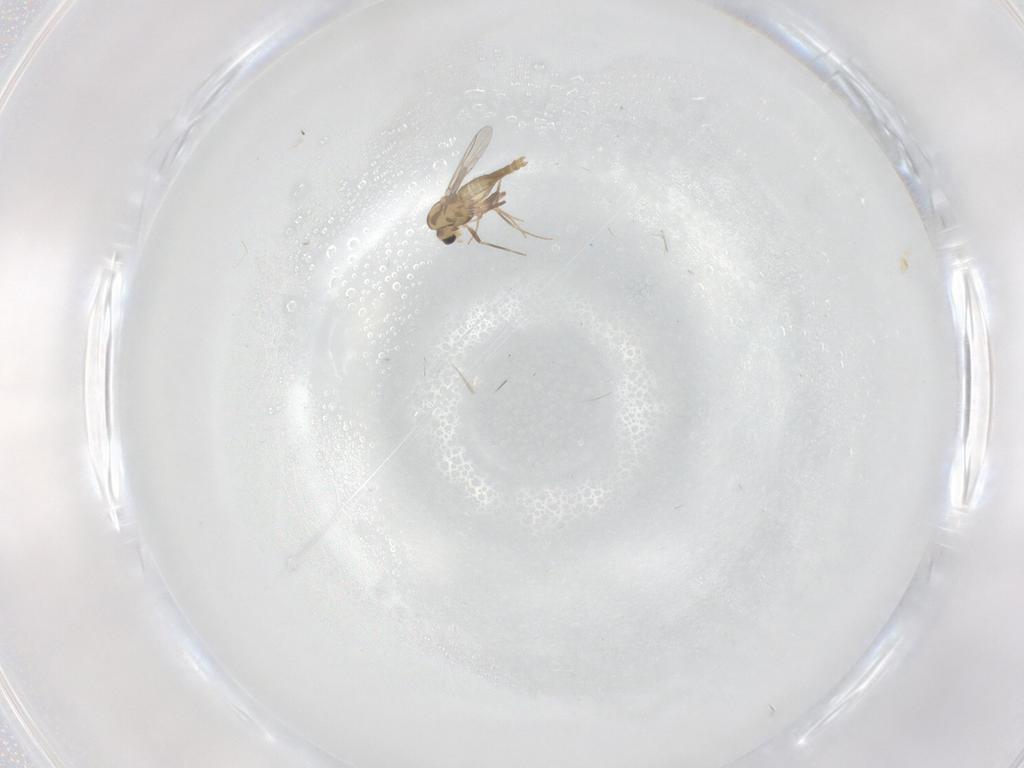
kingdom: Animalia
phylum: Arthropoda
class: Insecta
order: Diptera
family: Chironomidae
